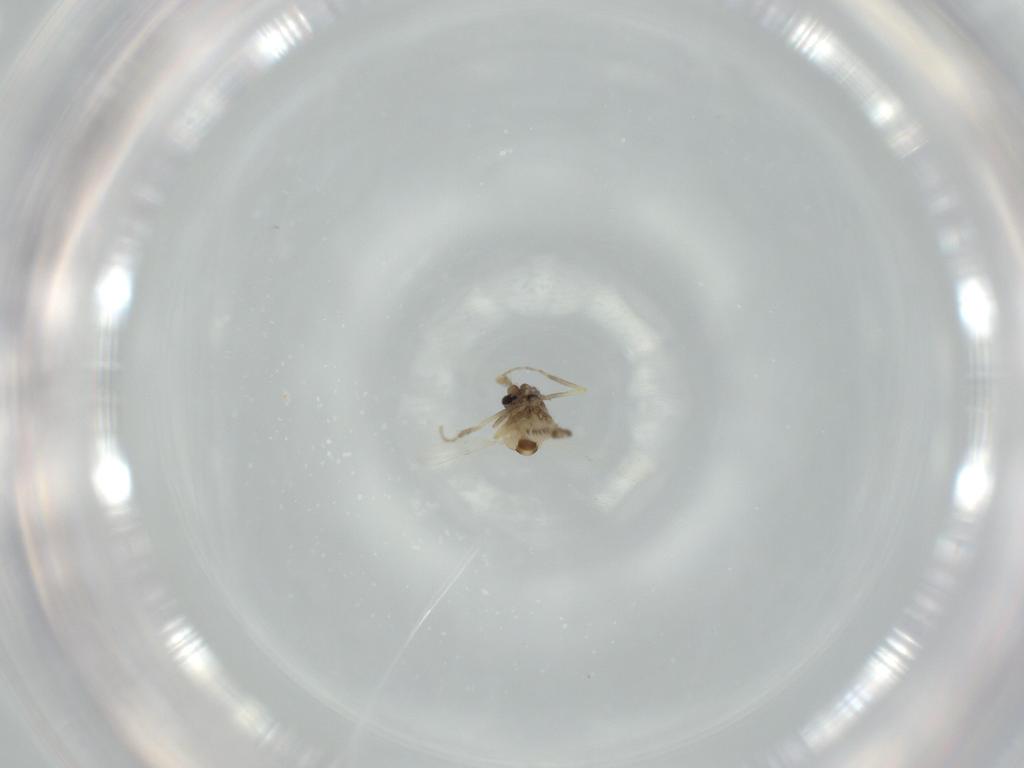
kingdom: Animalia
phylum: Arthropoda
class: Insecta
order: Diptera
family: Ceratopogonidae
